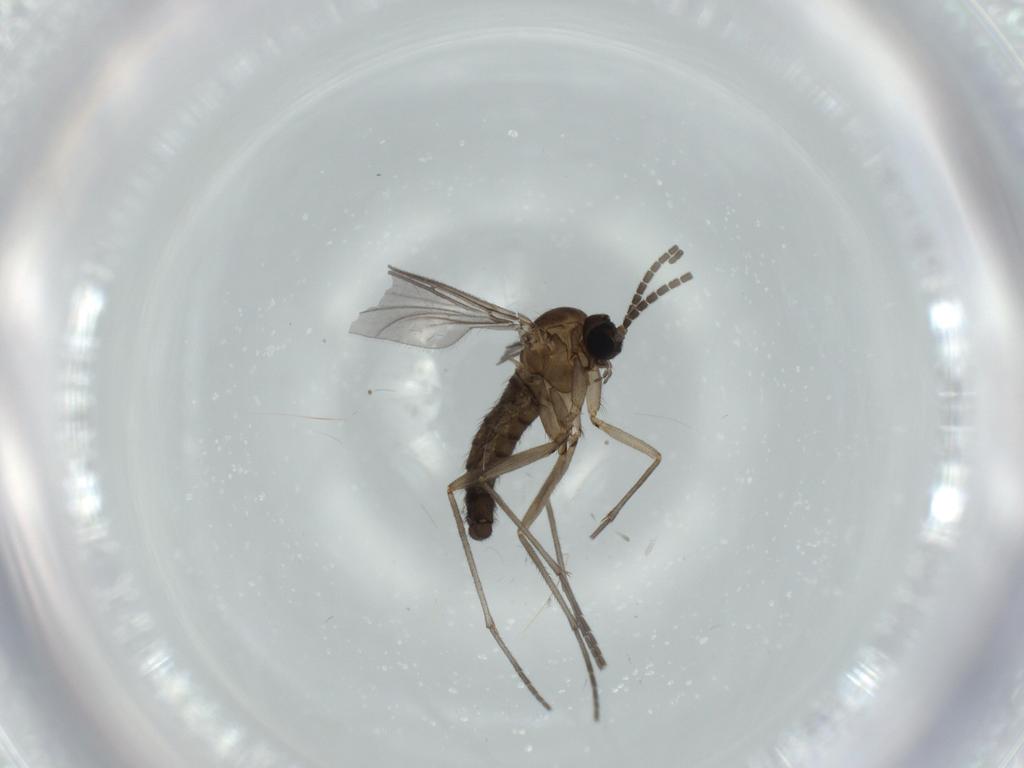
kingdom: Animalia
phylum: Arthropoda
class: Insecta
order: Diptera
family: Sciaridae
